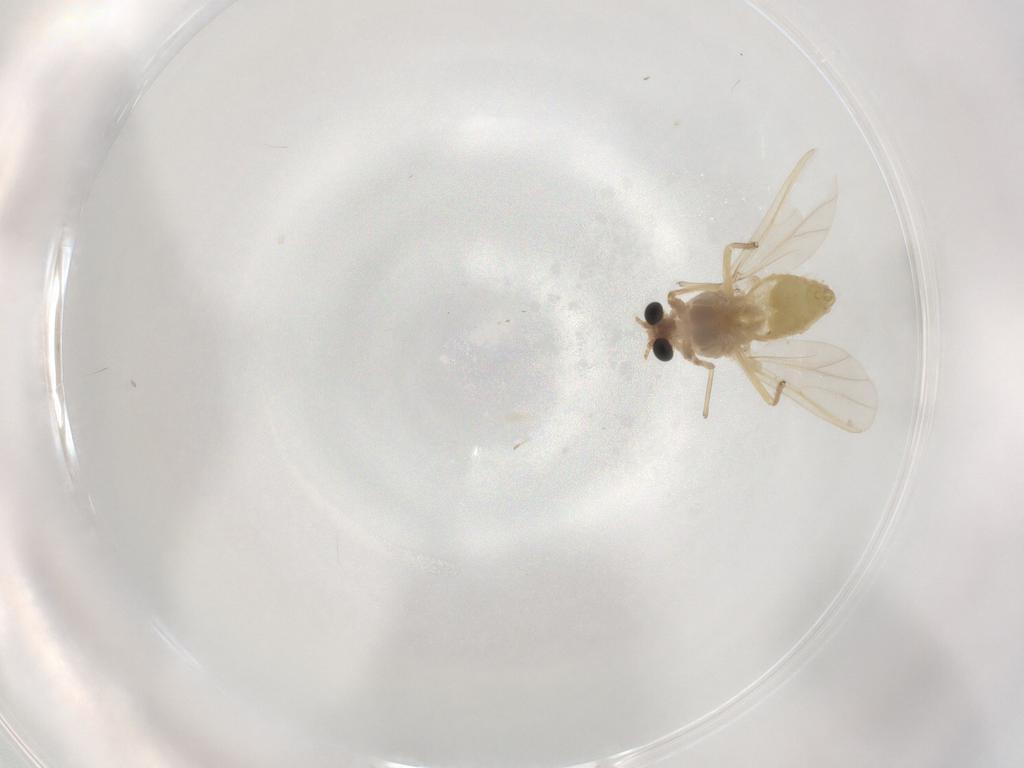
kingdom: Animalia
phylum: Arthropoda
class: Insecta
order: Diptera
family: Chironomidae
